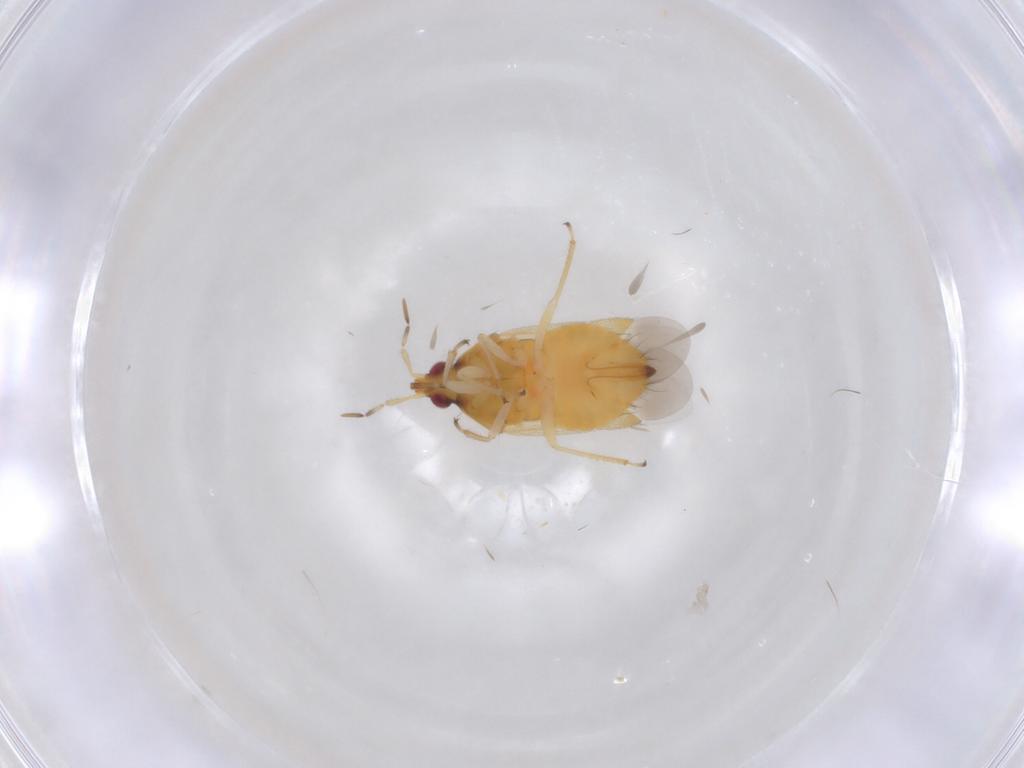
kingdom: Animalia
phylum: Arthropoda
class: Insecta
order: Hemiptera
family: Anthocoridae
